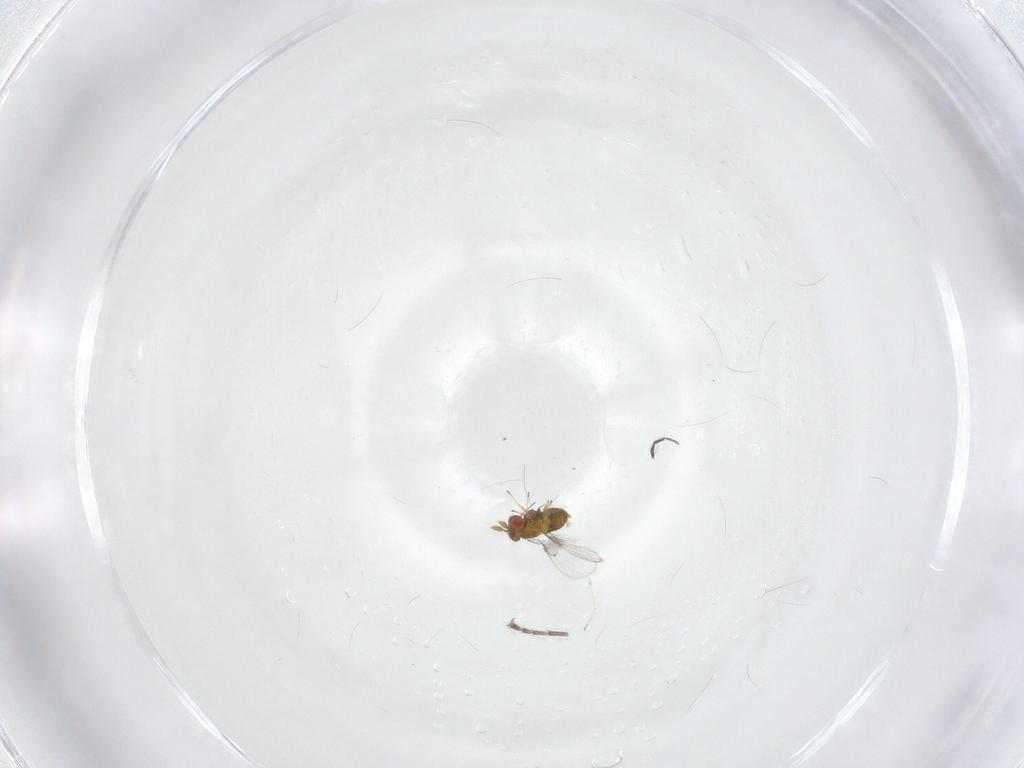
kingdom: Animalia
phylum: Arthropoda
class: Insecta
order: Hymenoptera
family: Trichogrammatidae
